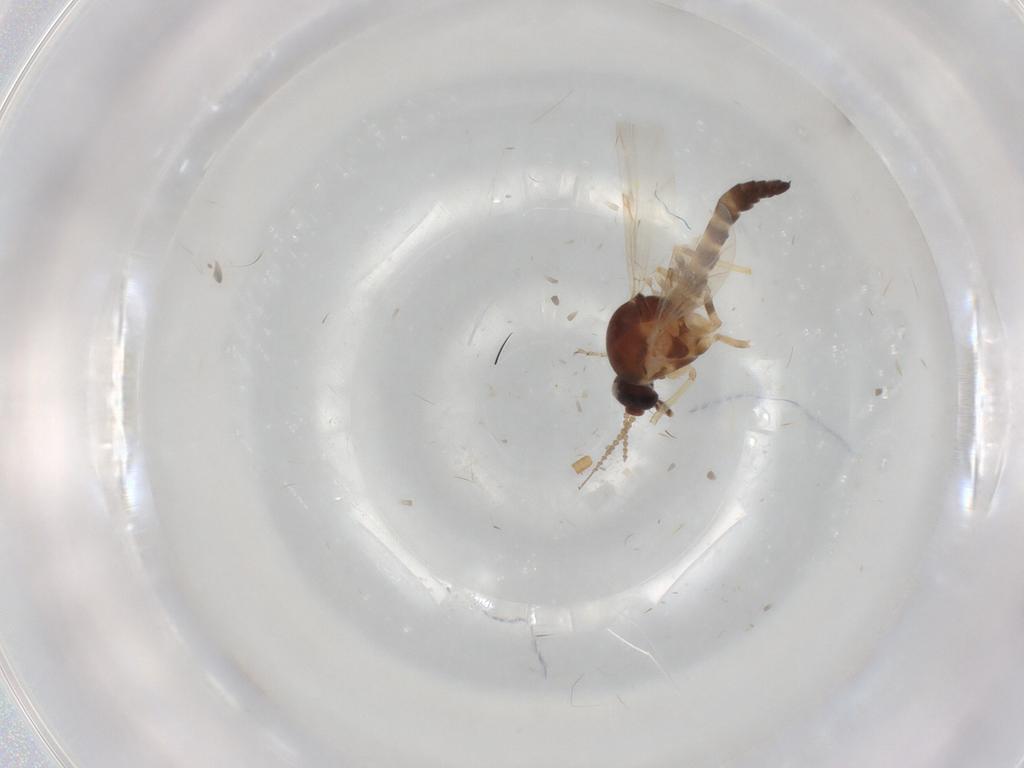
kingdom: Animalia
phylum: Arthropoda
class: Insecta
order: Diptera
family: Ceratopogonidae
